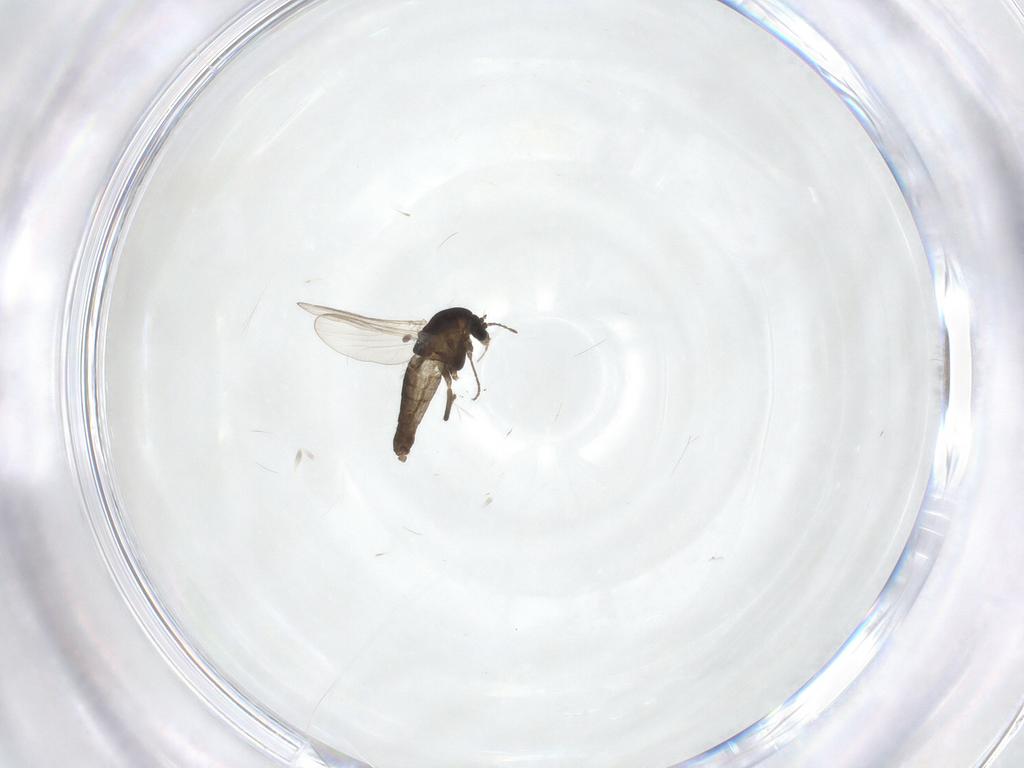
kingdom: Animalia
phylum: Arthropoda
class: Insecta
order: Diptera
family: Chironomidae
